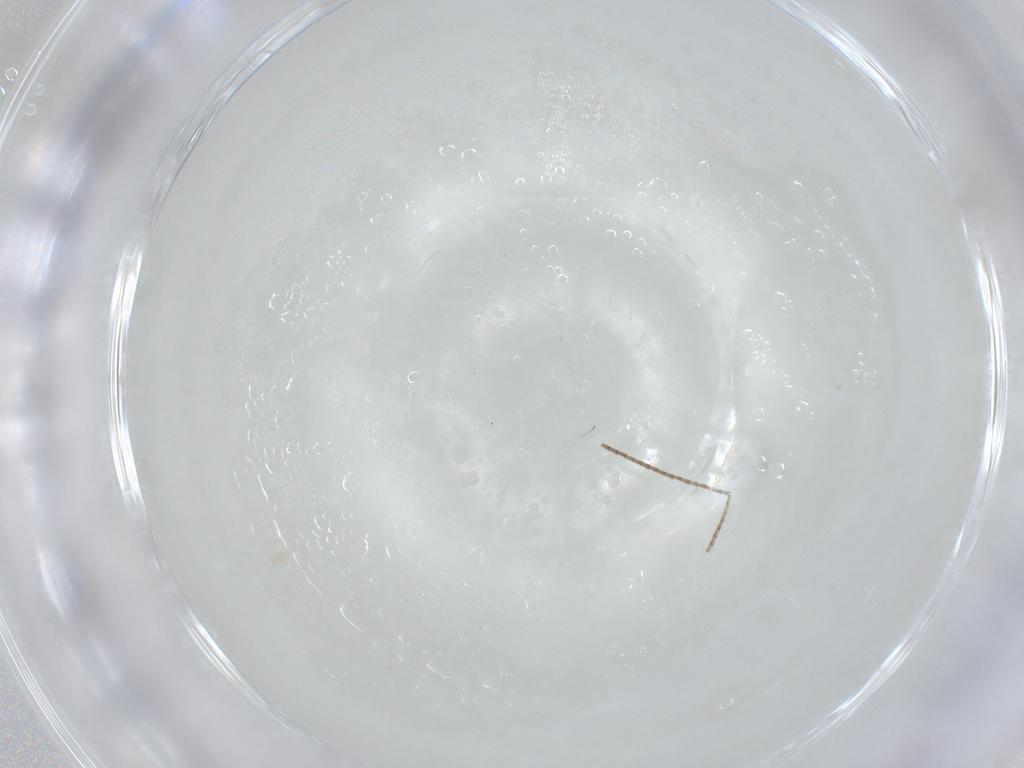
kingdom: Animalia
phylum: Arthropoda
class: Insecta
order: Lepidoptera
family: Gracillariidae
